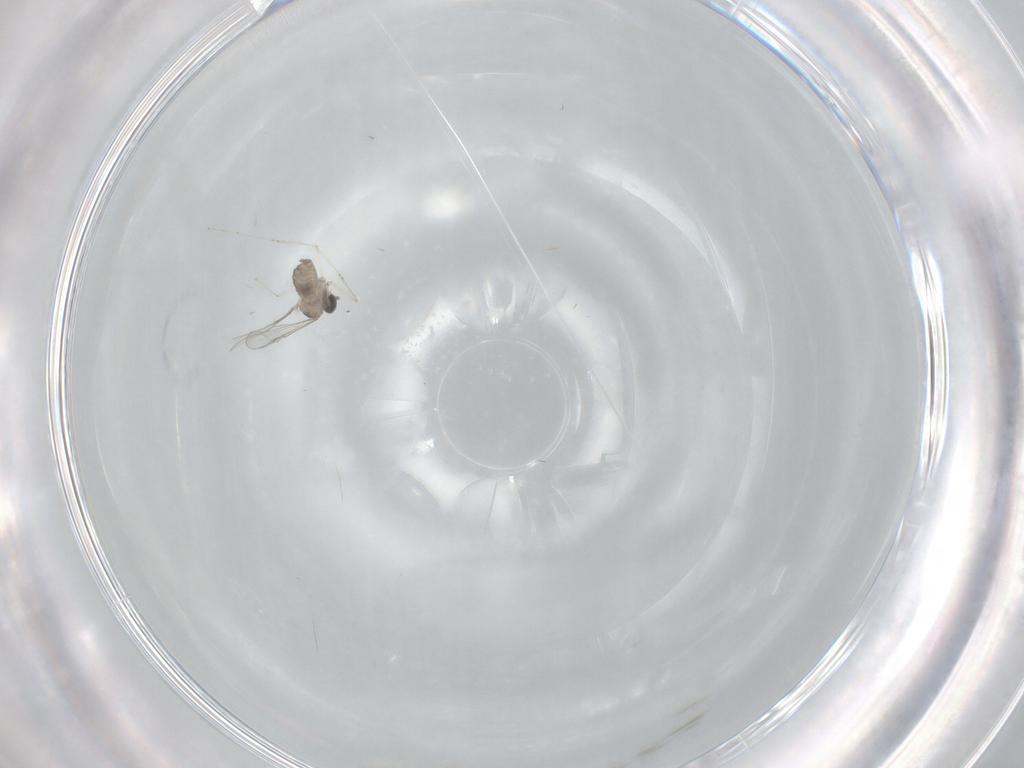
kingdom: Animalia
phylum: Arthropoda
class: Insecta
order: Diptera
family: Cecidomyiidae
